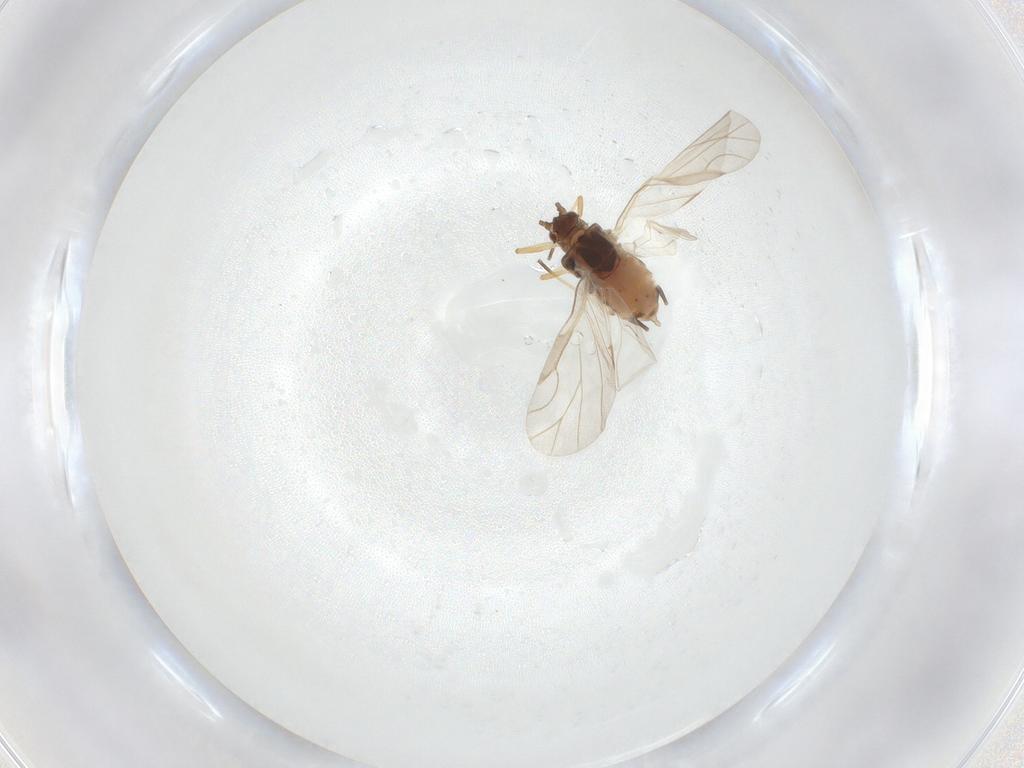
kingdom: Animalia
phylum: Arthropoda
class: Insecta
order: Hemiptera
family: Aphididae
